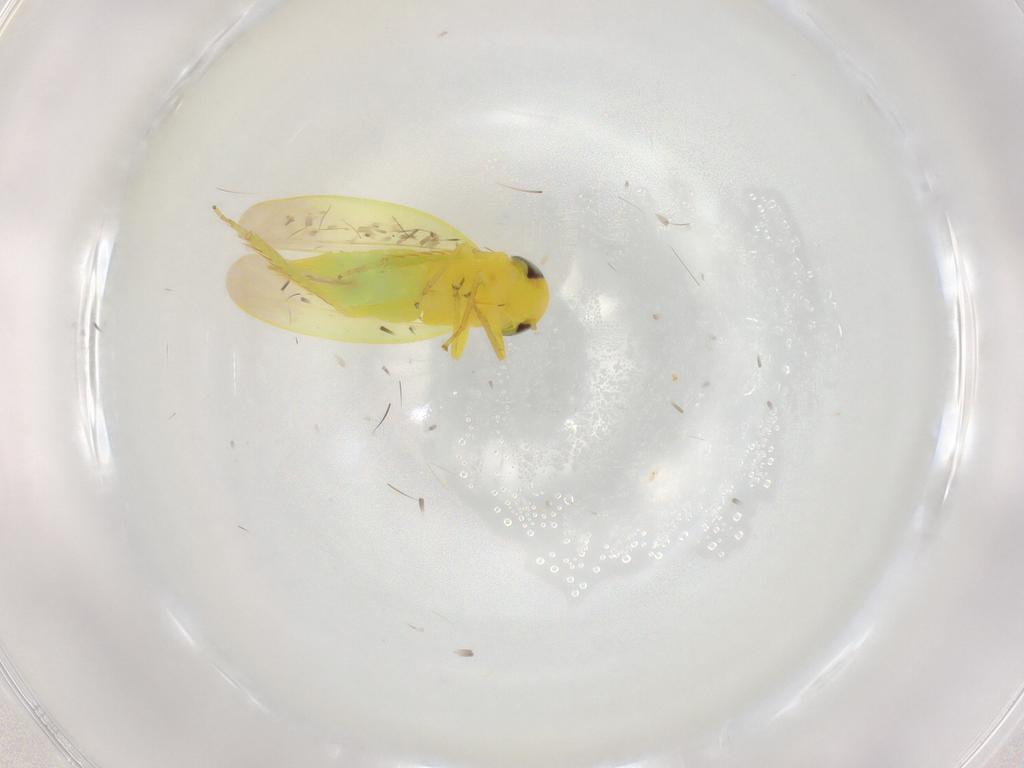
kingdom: Animalia
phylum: Arthropoda
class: Insecta
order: Hemiptera
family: Cicadellidae
